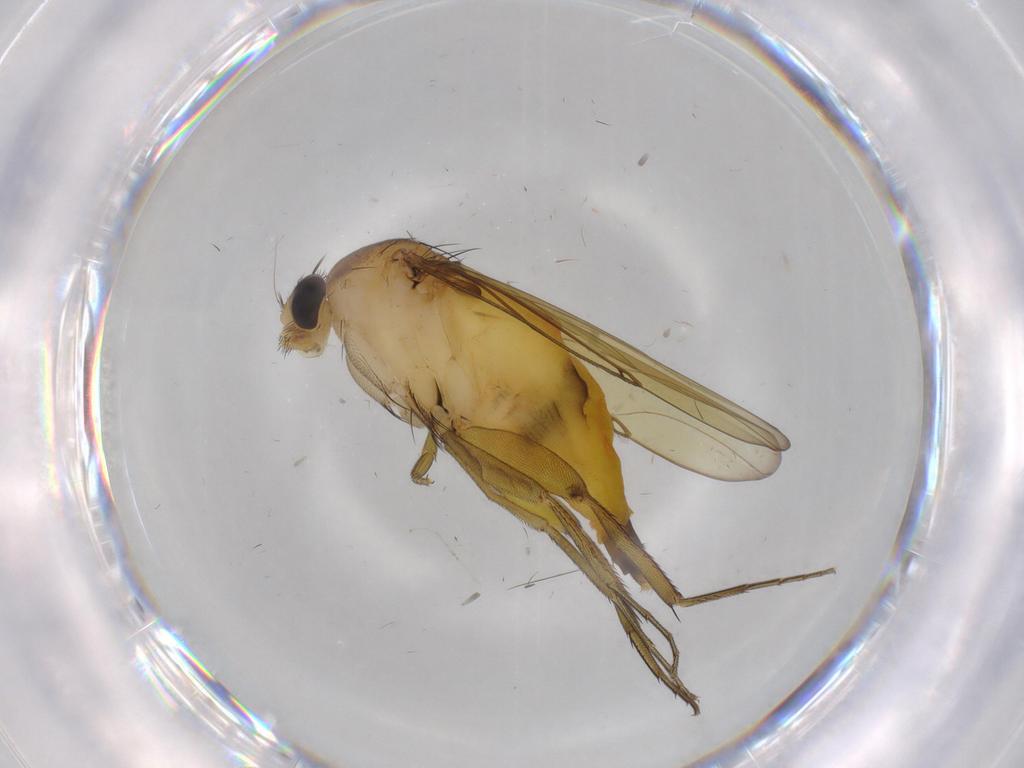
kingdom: Animalia
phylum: Arthropoda
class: Insecta
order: Diptera
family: Phoridae
